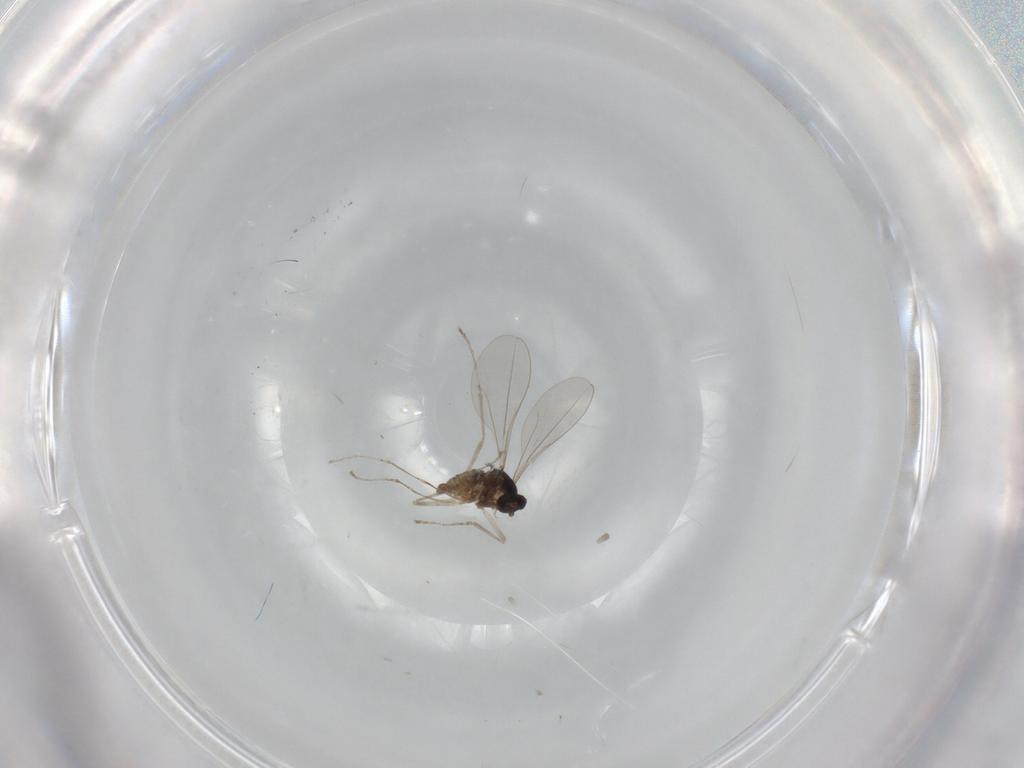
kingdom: Animalia
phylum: Arthropoda
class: Insecta
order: Diptera
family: Cecidomyiidae
